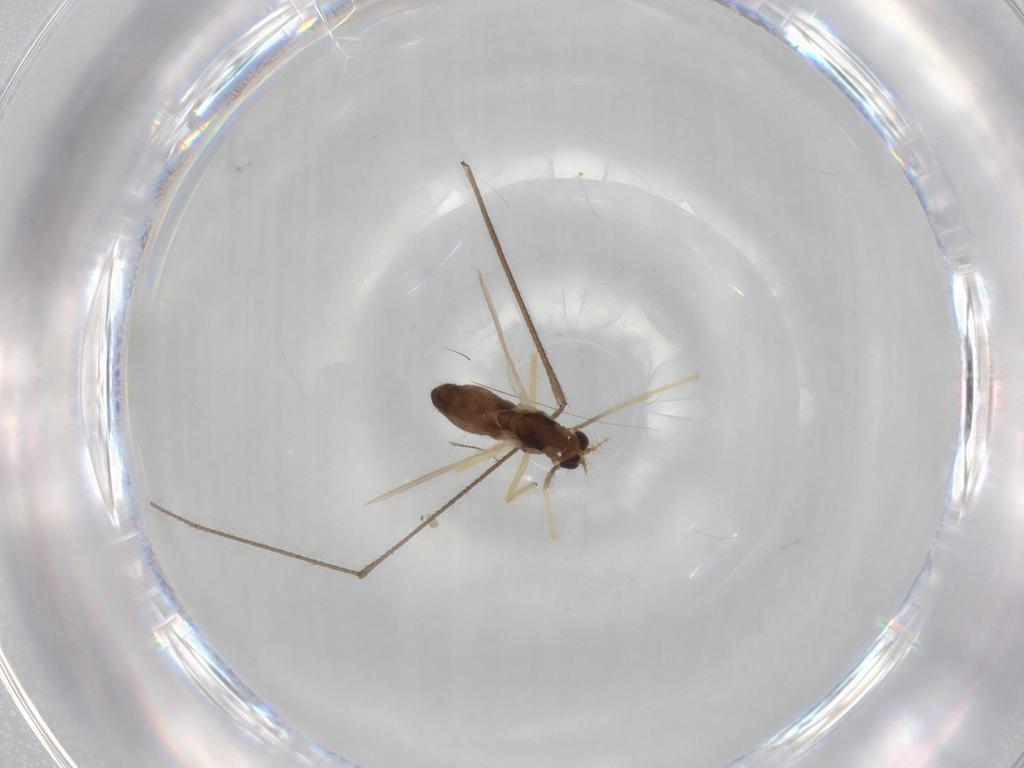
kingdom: Animalia
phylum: Arthropoda
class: Insecta
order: Diptera
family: Chironomidae
